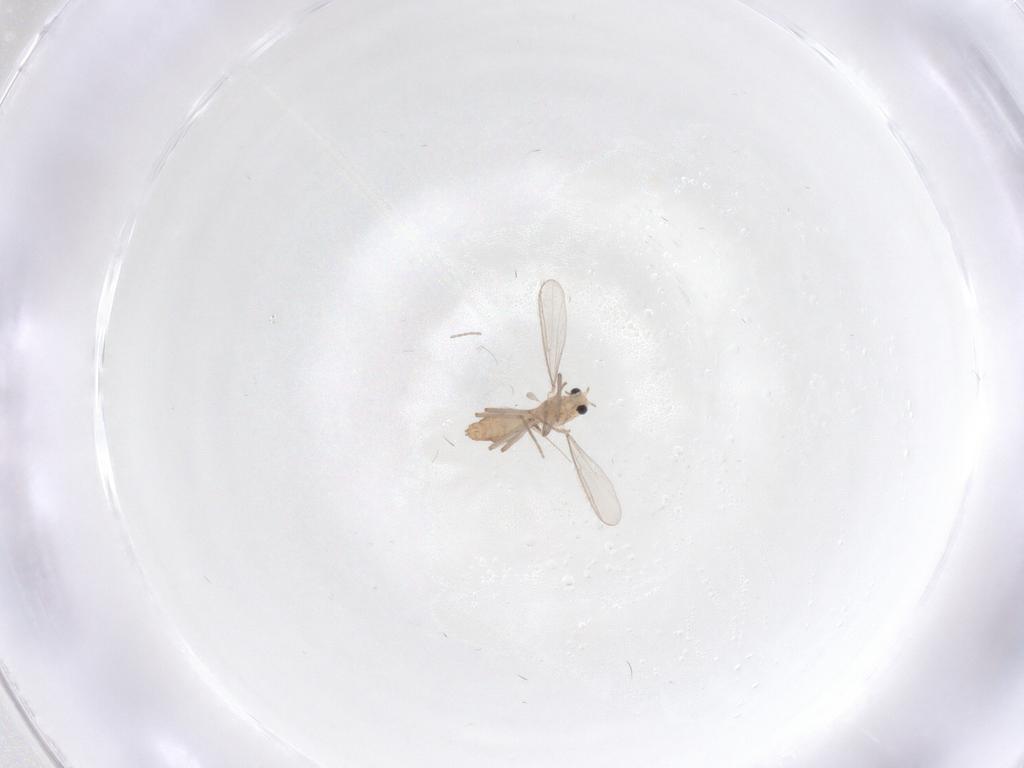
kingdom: Animalia
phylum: Arthropoda
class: Insecta
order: Diptera
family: Chironomidae
